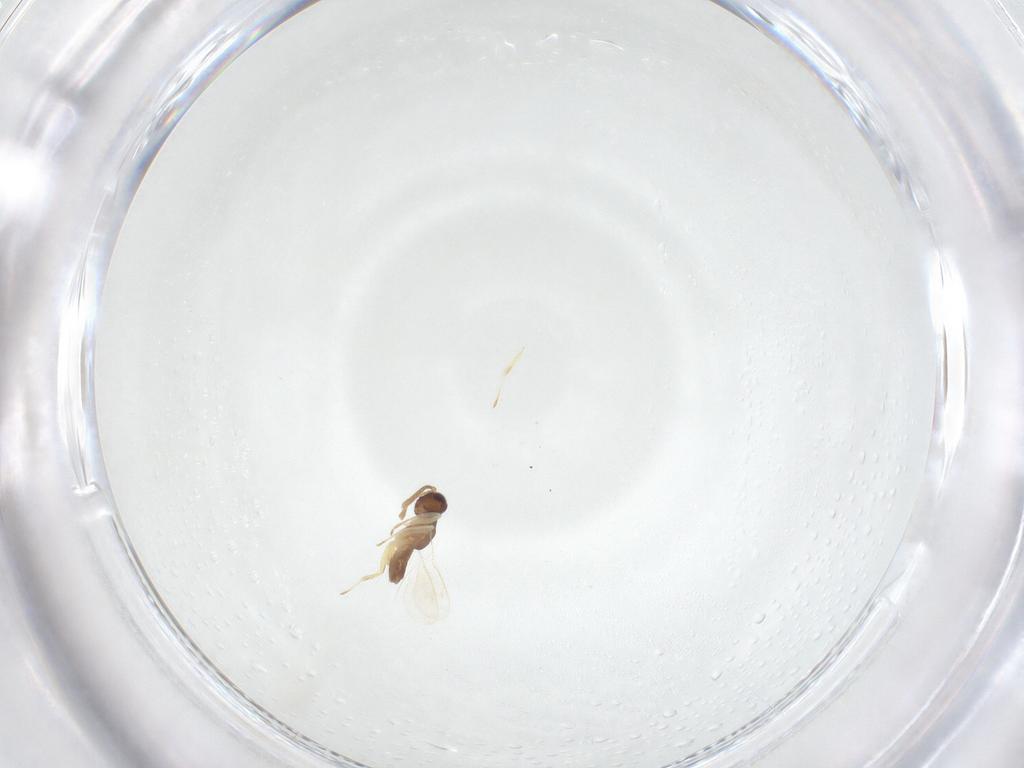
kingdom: Animalia
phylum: Arthropoda
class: Insecta
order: Hymenoptera
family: Eupelmidae
